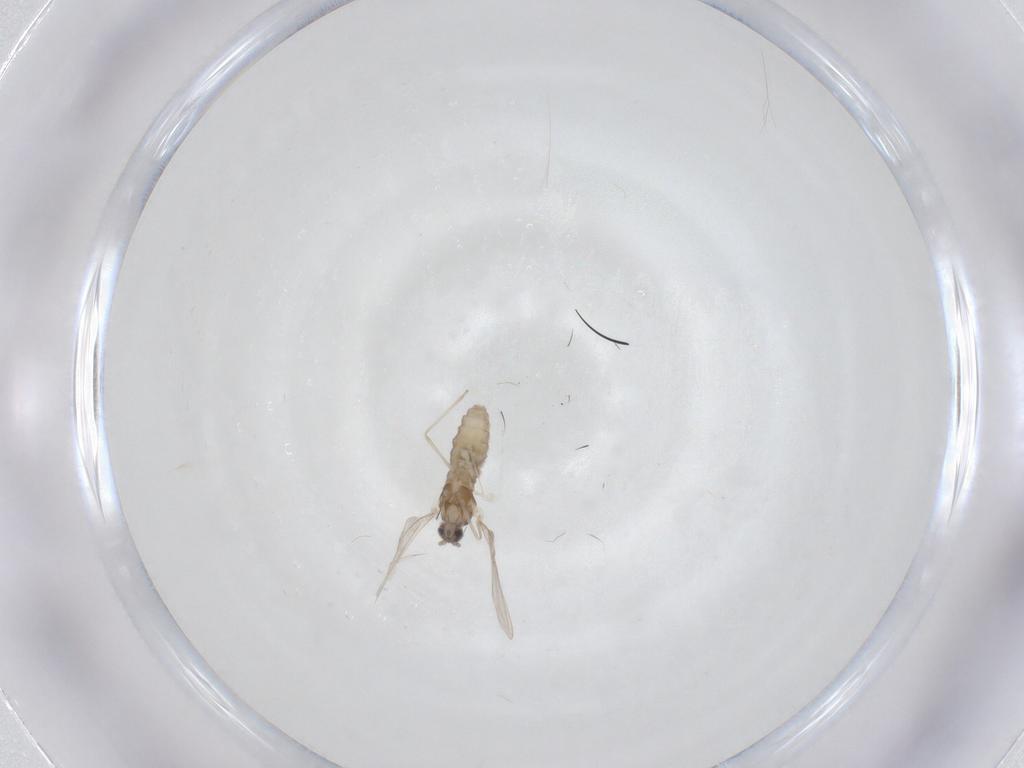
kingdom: Animalia
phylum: Arthropoda
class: Insecta
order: Diptera
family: Cecidomyiidae
